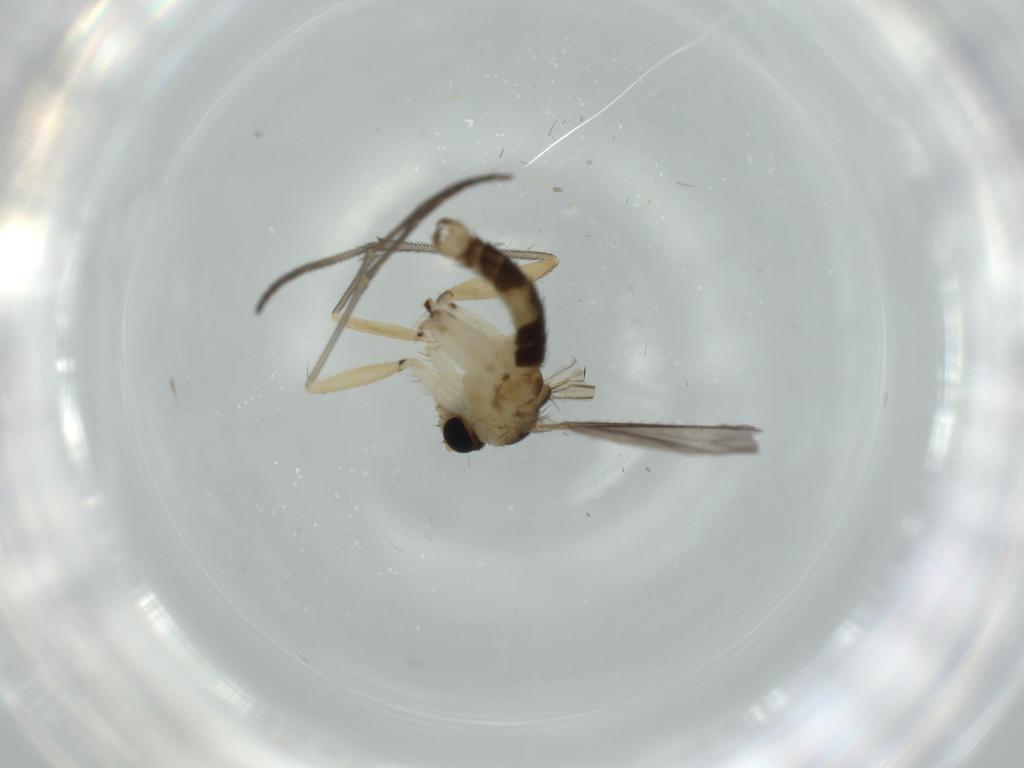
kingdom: Animalia
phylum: Arthropoda
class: Insecta
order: Diptera
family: Sciaridae
